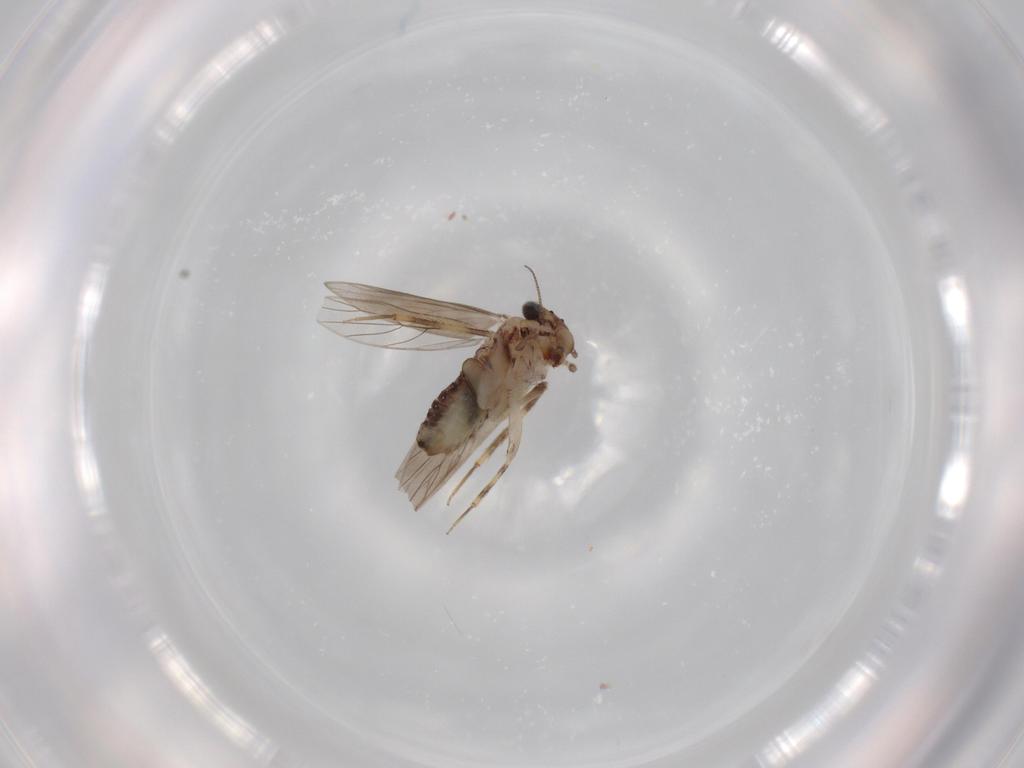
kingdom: Animalia
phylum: Arthropoda
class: Insecta
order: Psocodea
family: Lepidopsocidae
